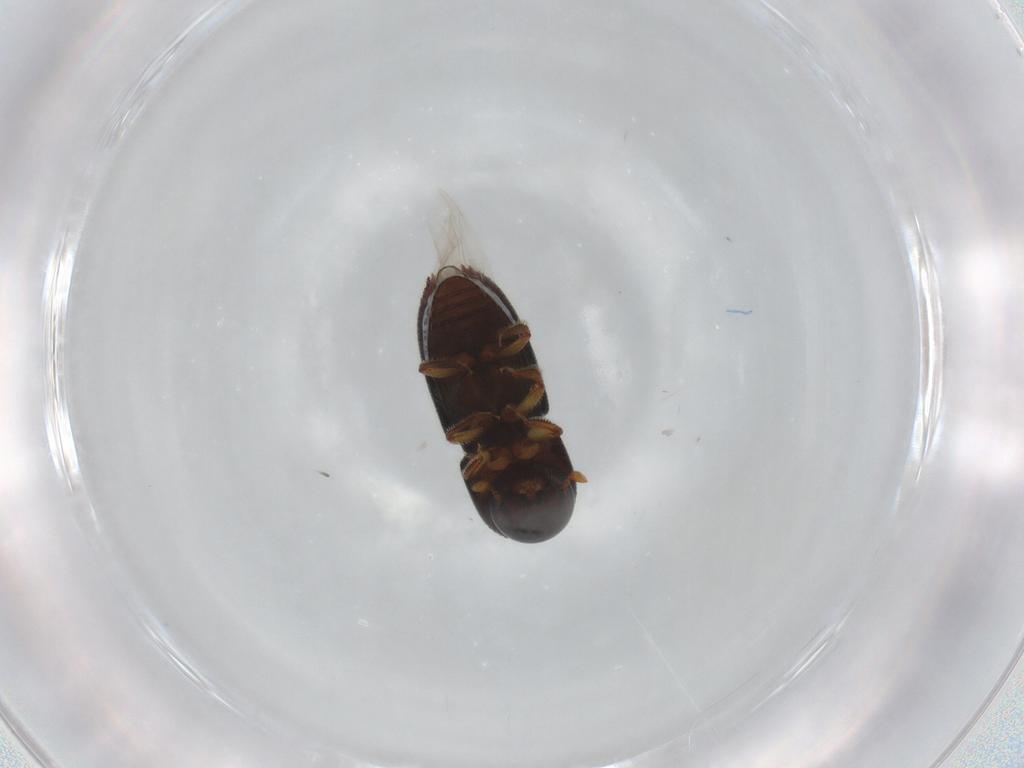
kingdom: Animalia
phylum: Arthropoda
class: Insecta
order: Coleoptera
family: Curculionidae
